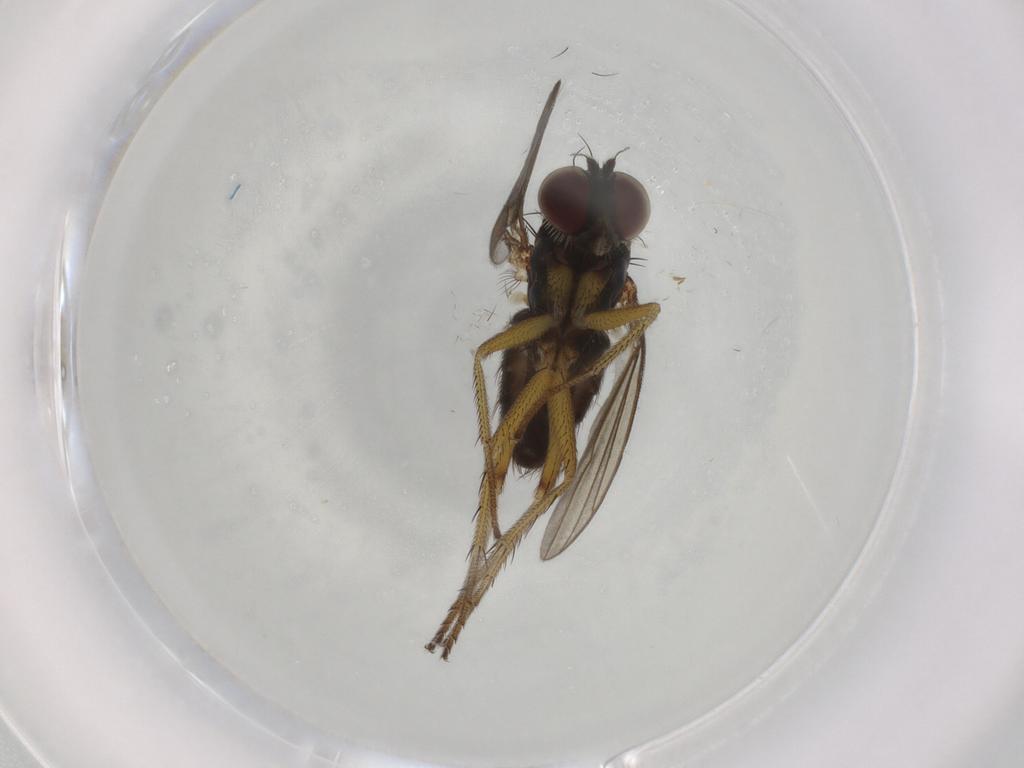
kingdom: Animalia
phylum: Arthropoda
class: Insecta
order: Diptera
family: Dolichopodidae
